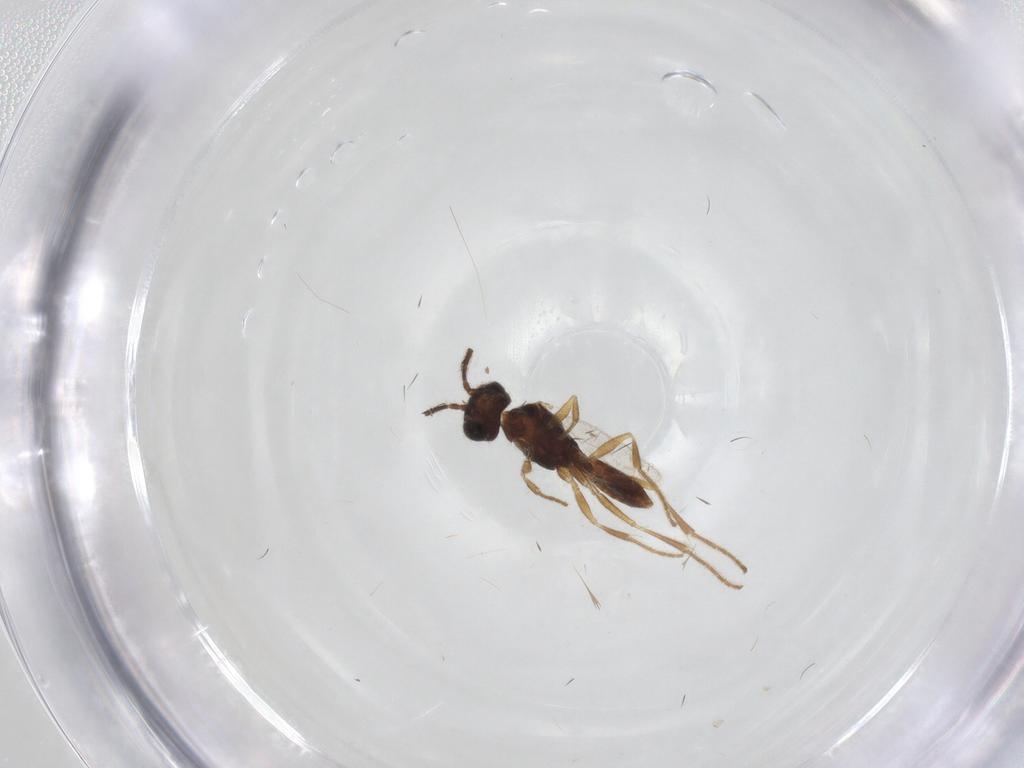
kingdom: Animalia
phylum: Arthropoda
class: Insecta
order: Hymenoptera
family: Dryinidae
